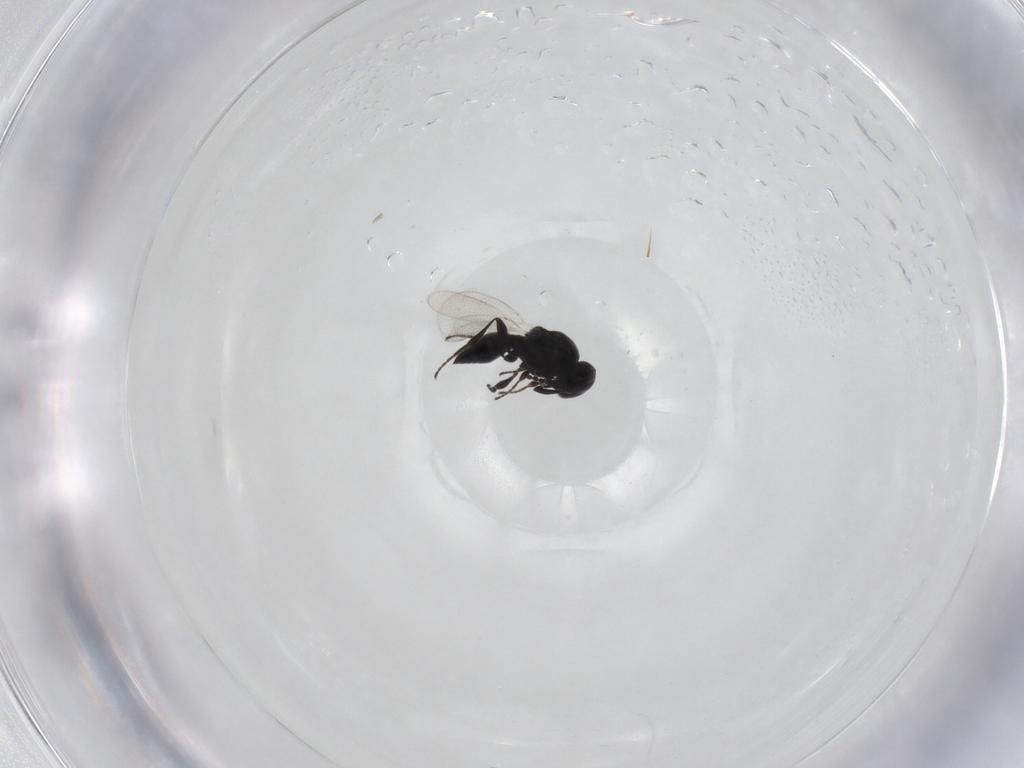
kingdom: Animalia
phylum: Arthropoda
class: Insecta
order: Hymenoptera
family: Platygastridae
